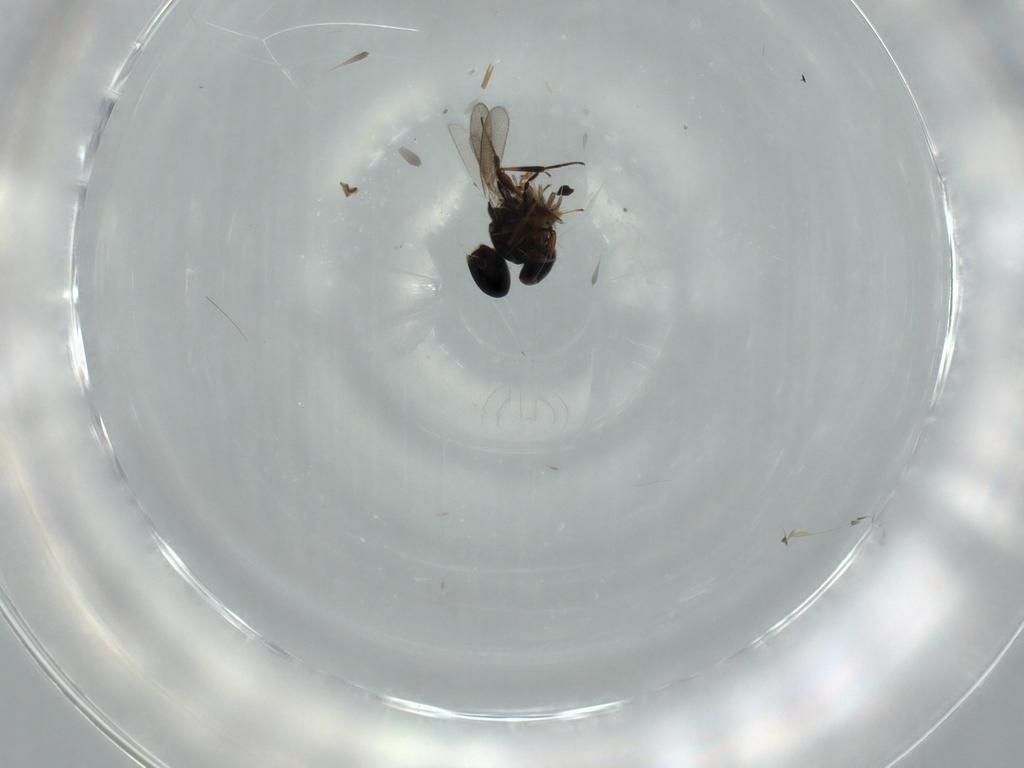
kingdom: Animalia
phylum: Arthropoda
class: Insecta
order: Hymenoptera
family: Platygastridae
